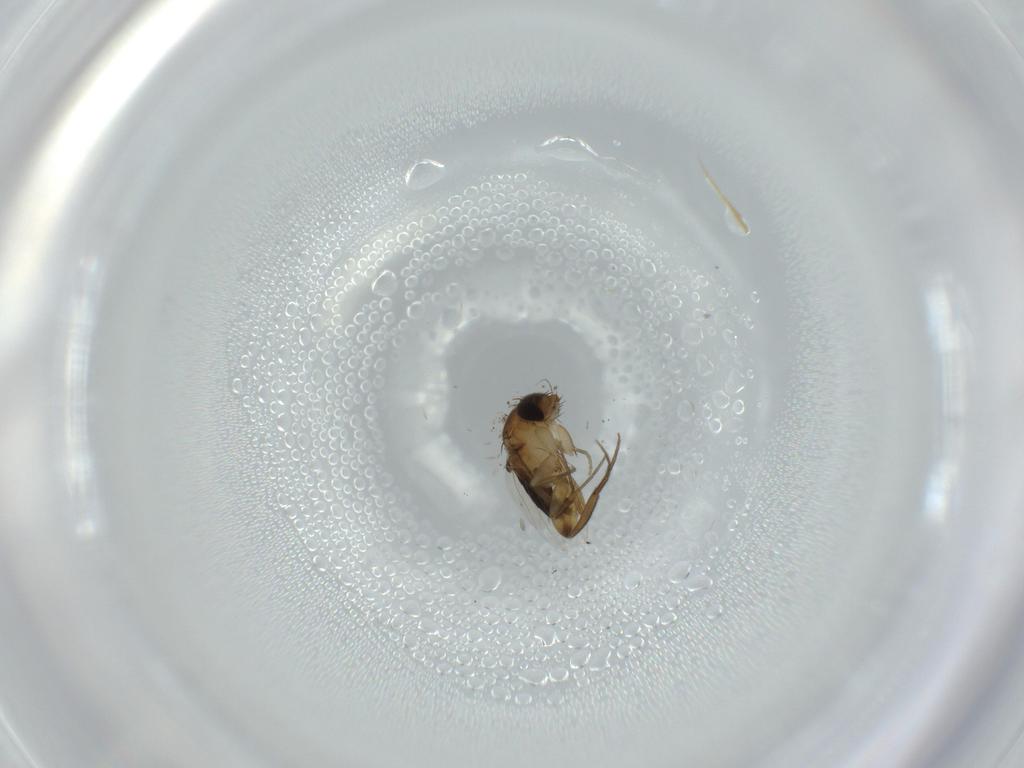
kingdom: Animalia
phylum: Arthropoda
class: Insecta
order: Diptera
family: Phoridae
